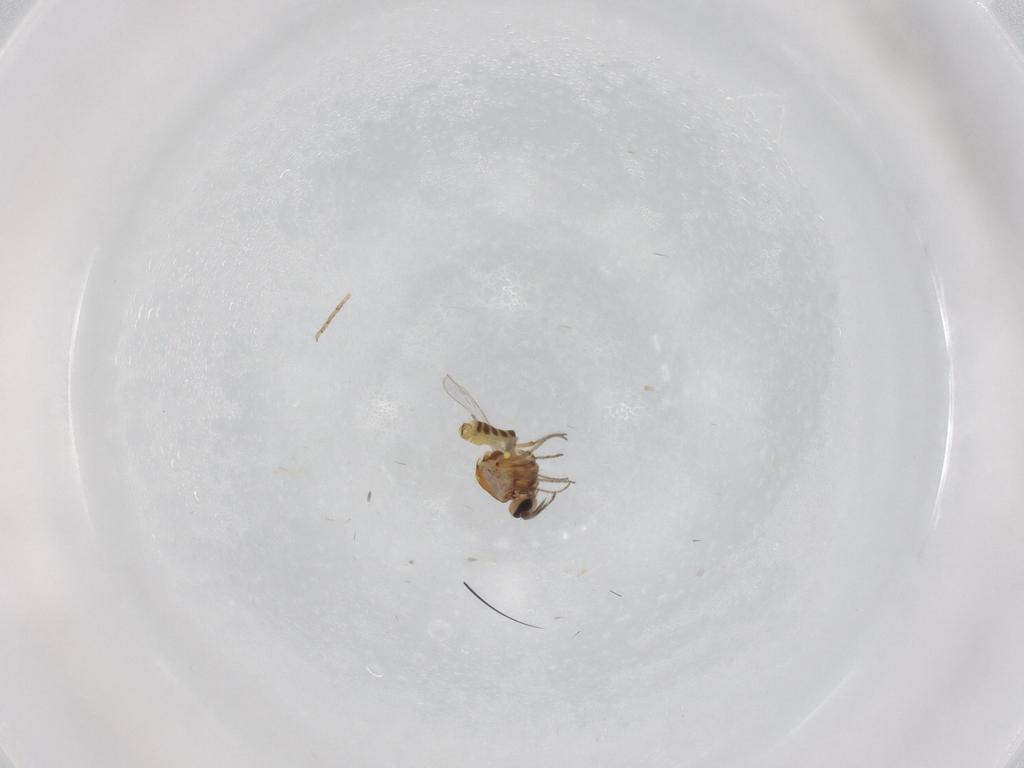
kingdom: Animalia
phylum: Arthropoda
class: Insecta
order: Diptera
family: Ceratopogonidae
